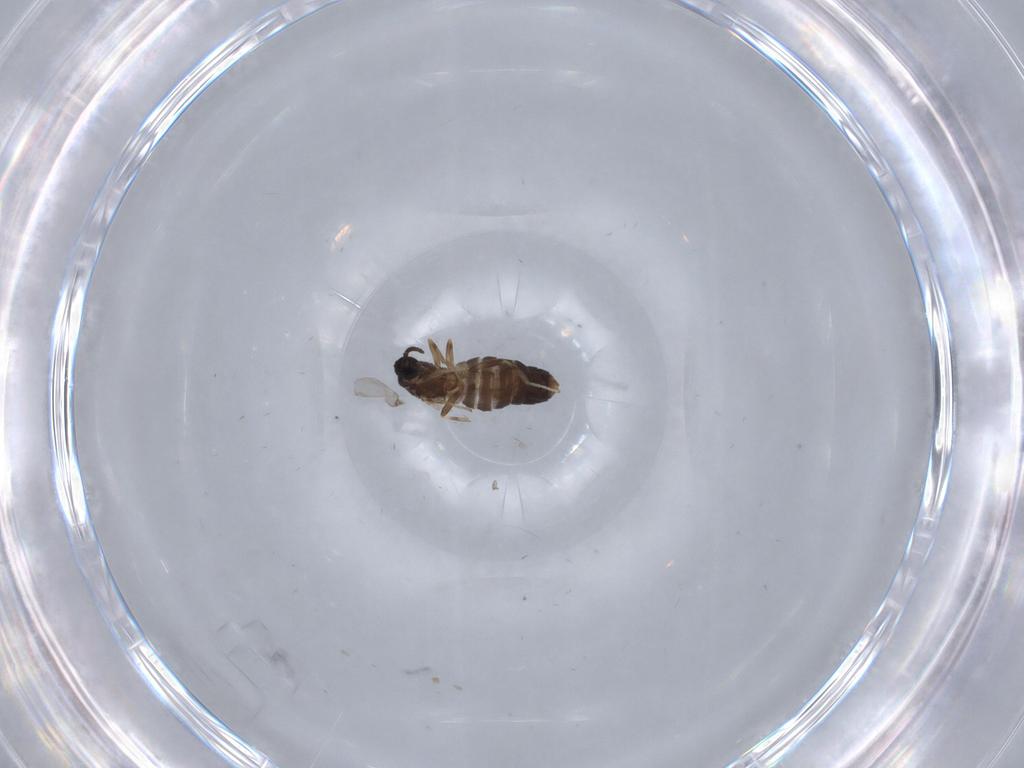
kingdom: Animalia
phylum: Arthropoda
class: Insecta
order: Diptera
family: Scatopsidae
